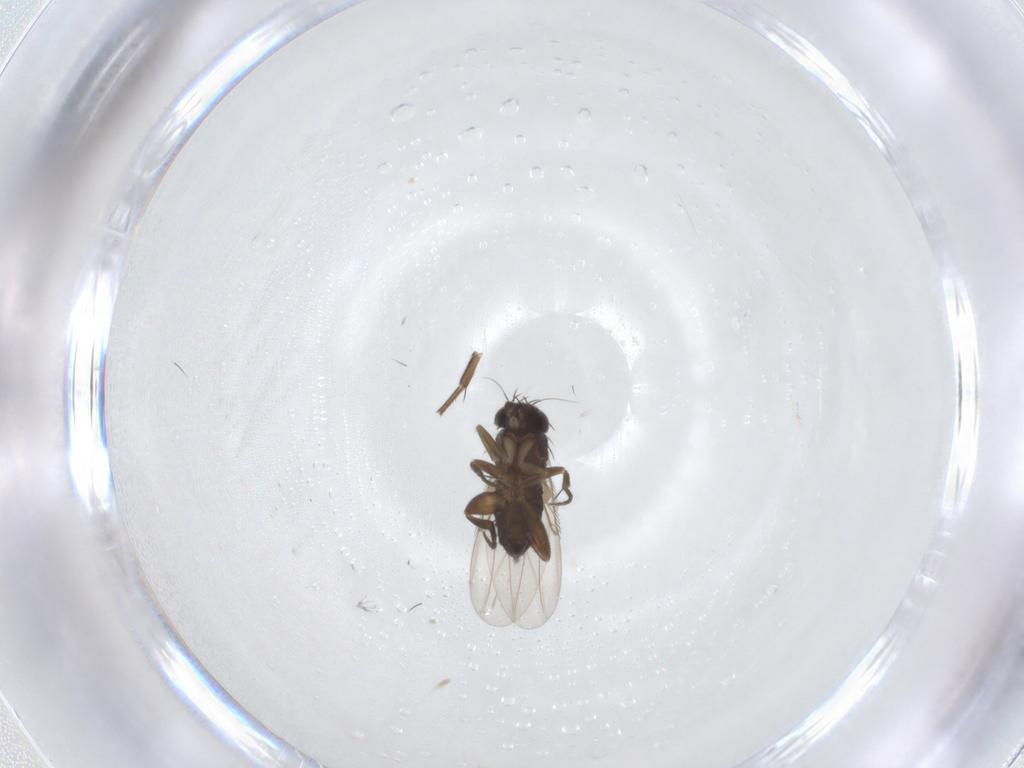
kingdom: Animalia
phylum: Arthropoda
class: Insecta
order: Diptera
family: Phoridae
